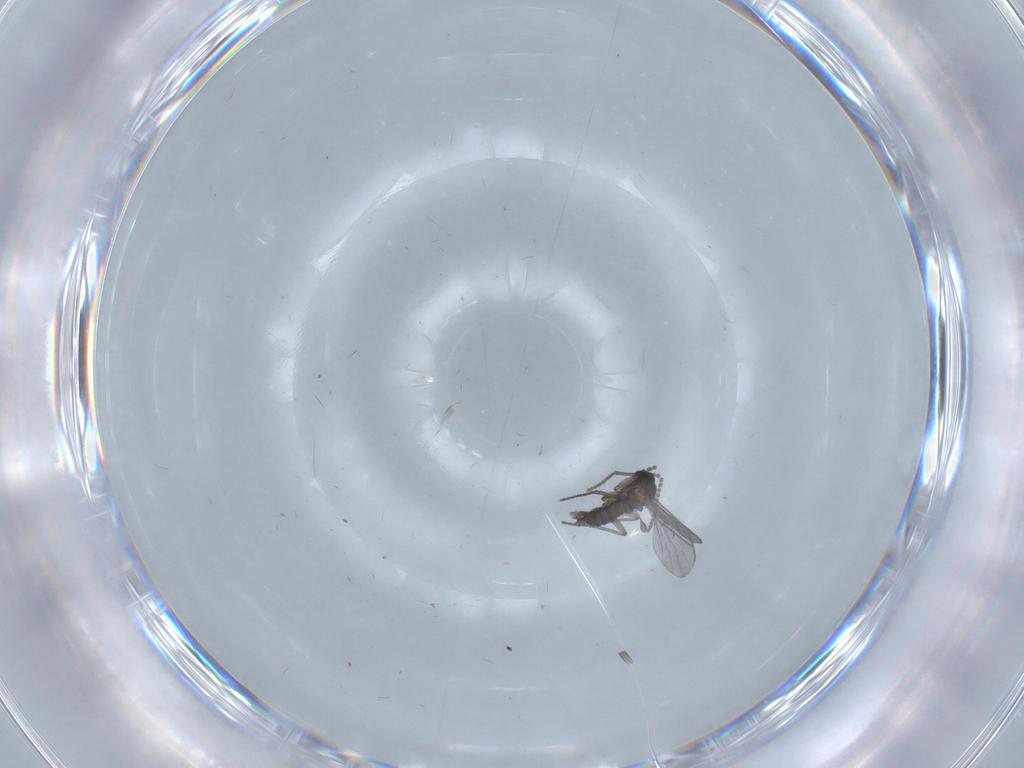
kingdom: Animalia
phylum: Arthropoda
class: Insecta
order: Diptera
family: Ceratopogonidae
